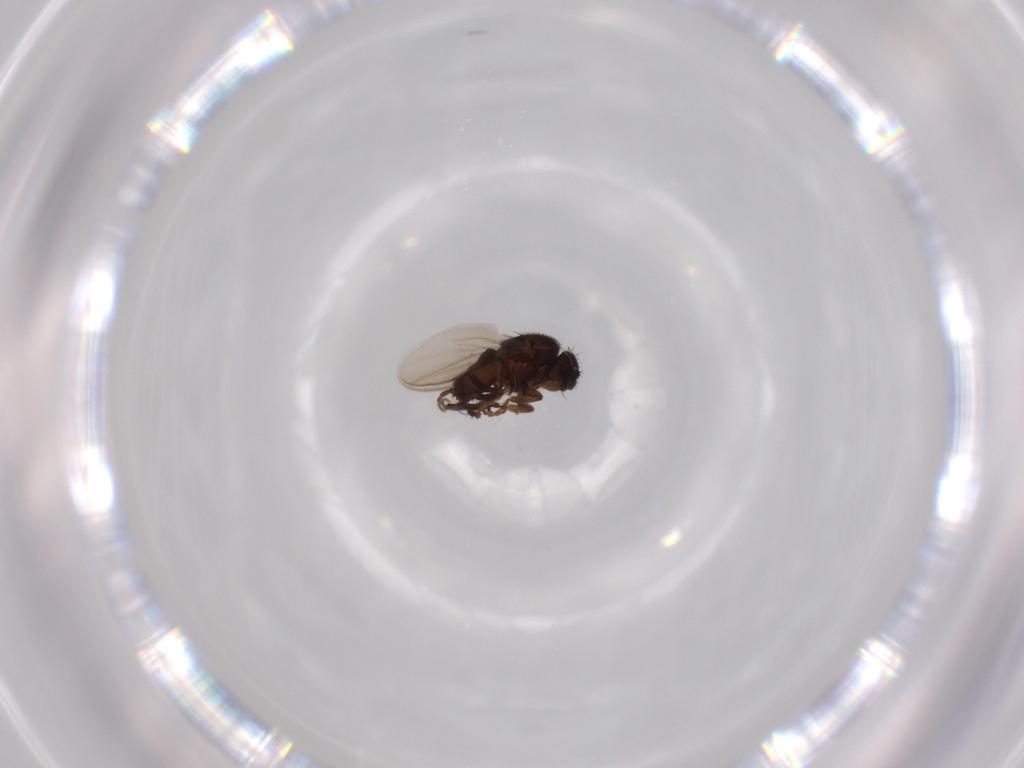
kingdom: Animalia
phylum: Arthropoda
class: Insecta
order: Diptera
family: Sphaeroceridae
